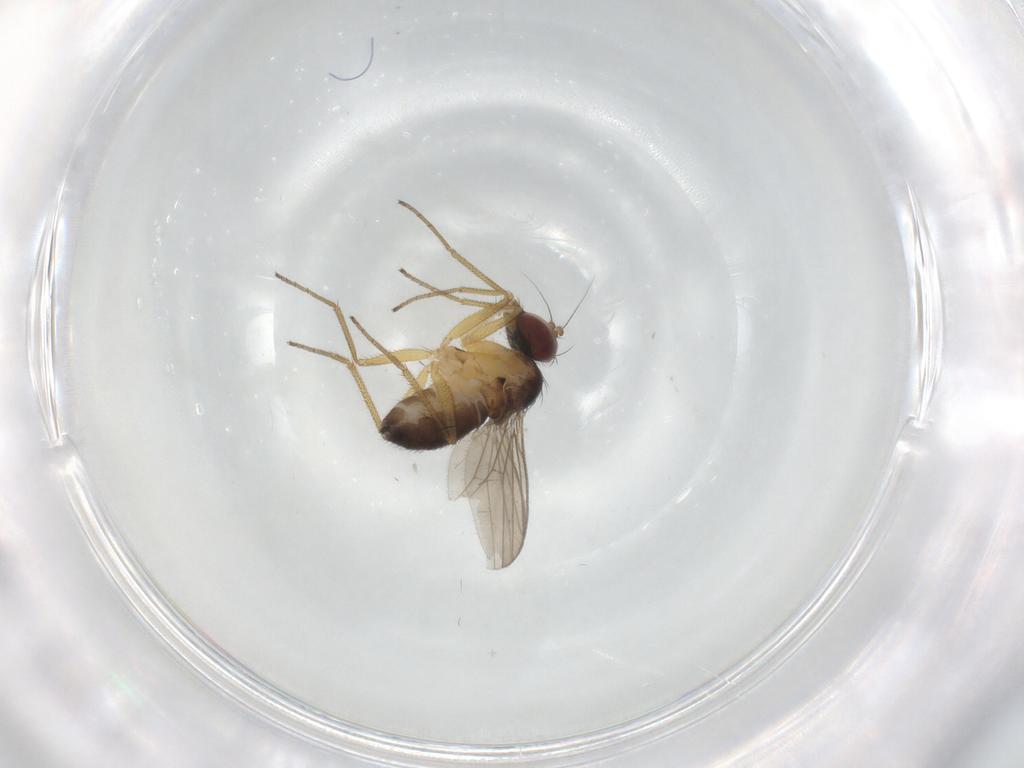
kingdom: Animalia
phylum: Arthropoda
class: Insecta
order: Diptera
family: Dolichopodidae
